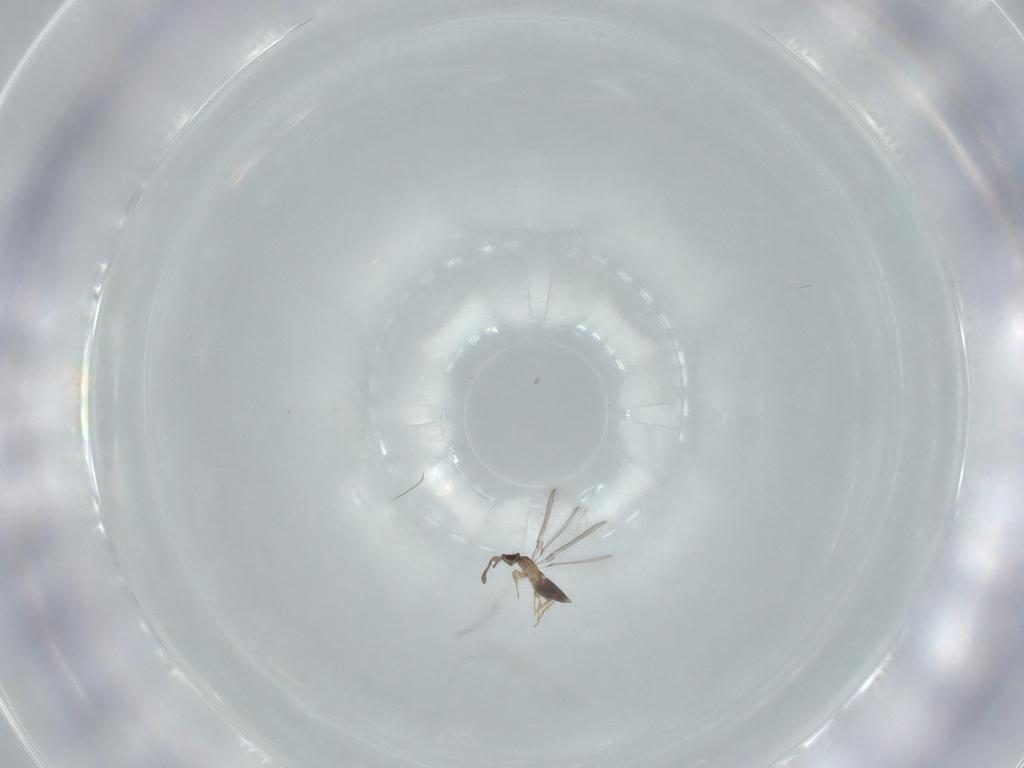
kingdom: Animalia
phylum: Arthropoda
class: Insecta
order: Hymenoptera
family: Mymaridae
